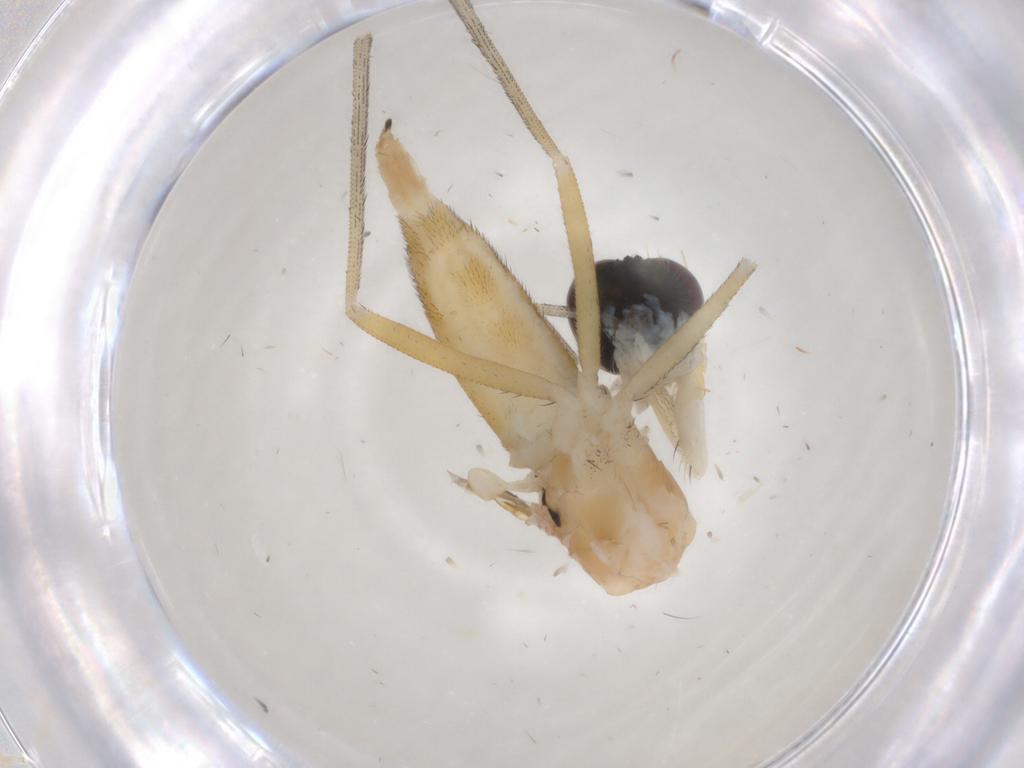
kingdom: Animalia
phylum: Arthropoda
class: Insecta
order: Diptera
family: Dolichopodidae
